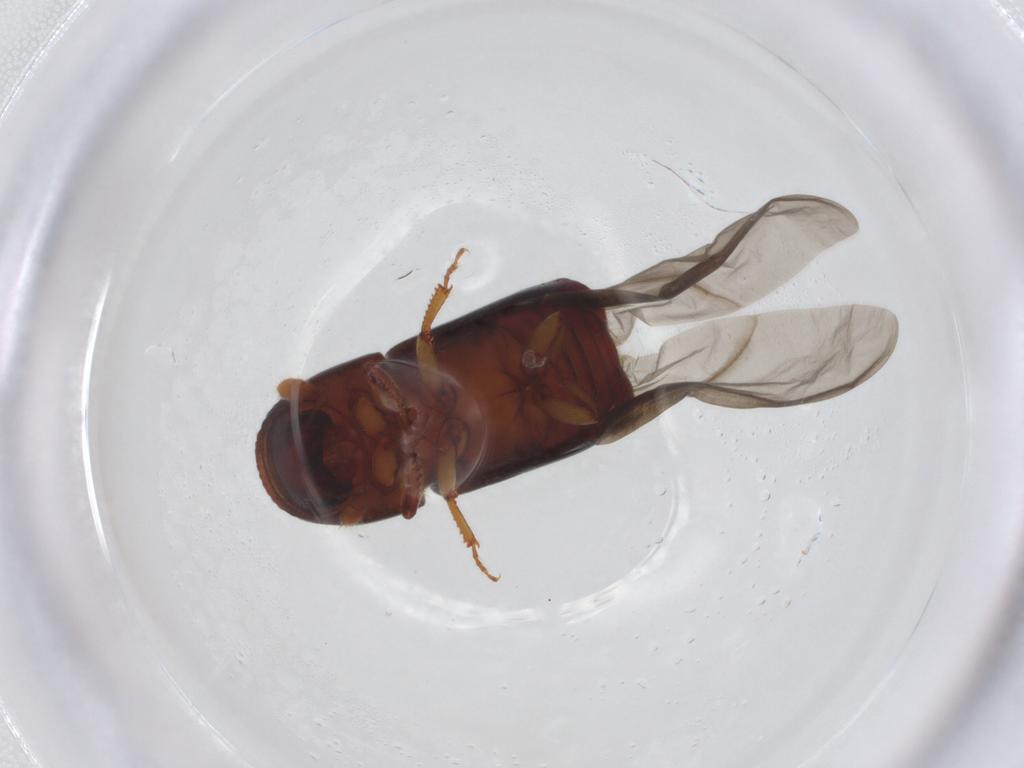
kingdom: Animalia
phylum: Arthropoda
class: Insecta
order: Coleoptera
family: Curculionidae
